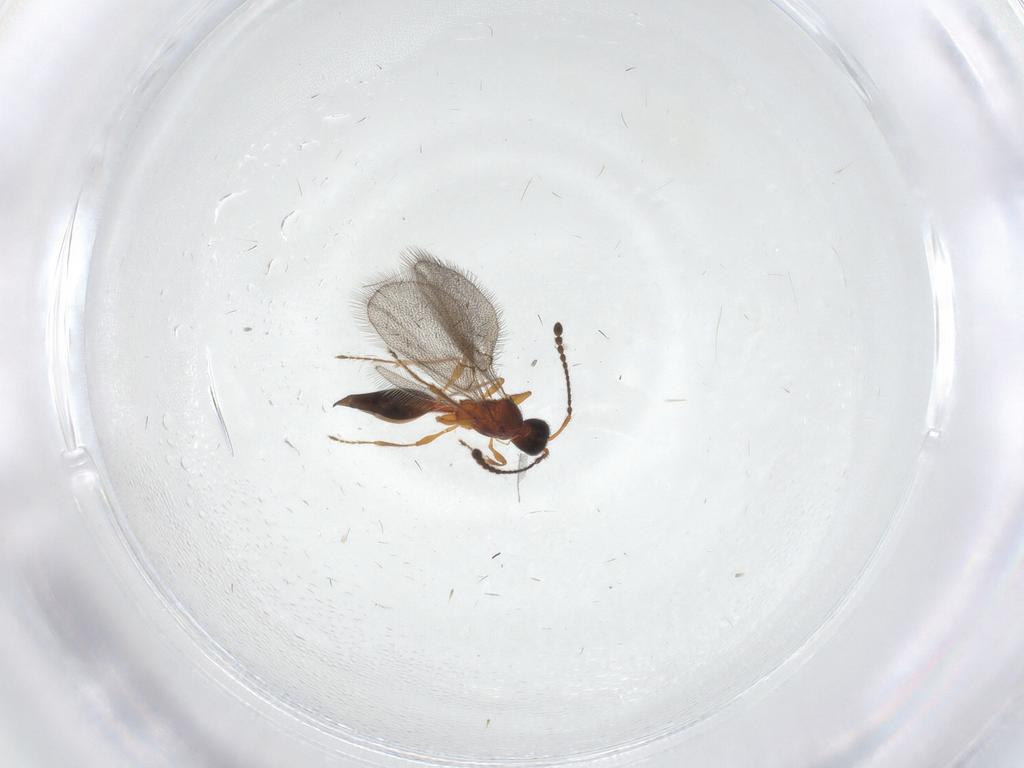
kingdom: Animalia
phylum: Arthropoda
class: Insecta
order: Hymenoptera
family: Diapriidae
